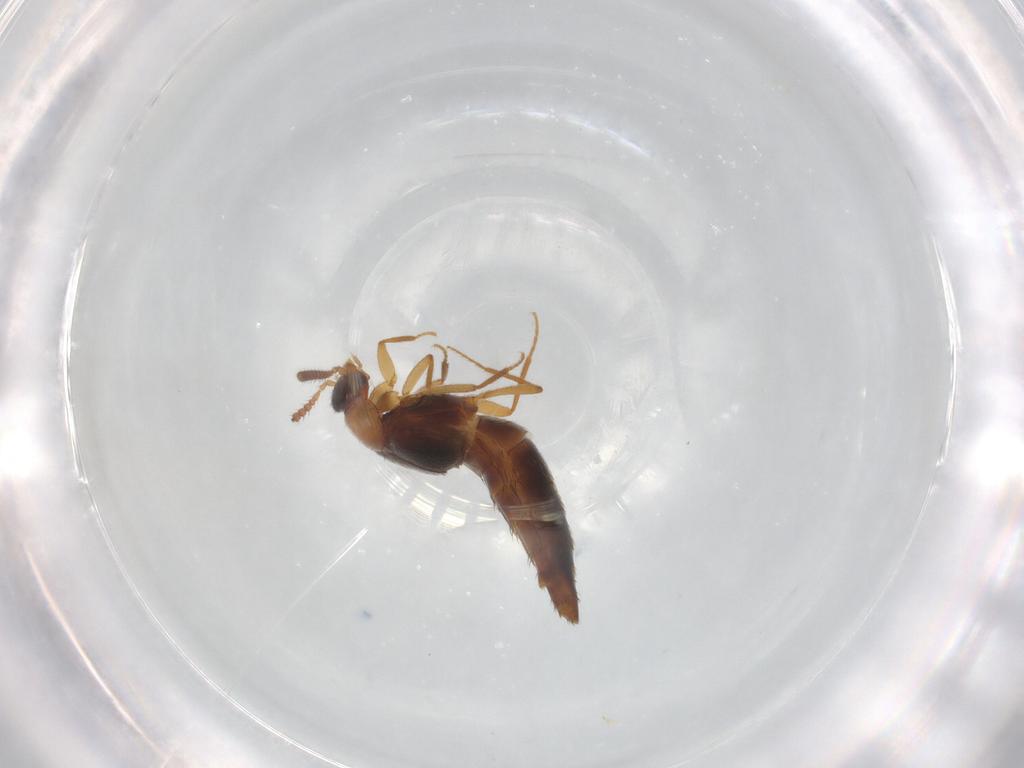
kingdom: Animalia
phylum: Arthropoda
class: Insecta
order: Coleoptera
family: Staphylinidae
